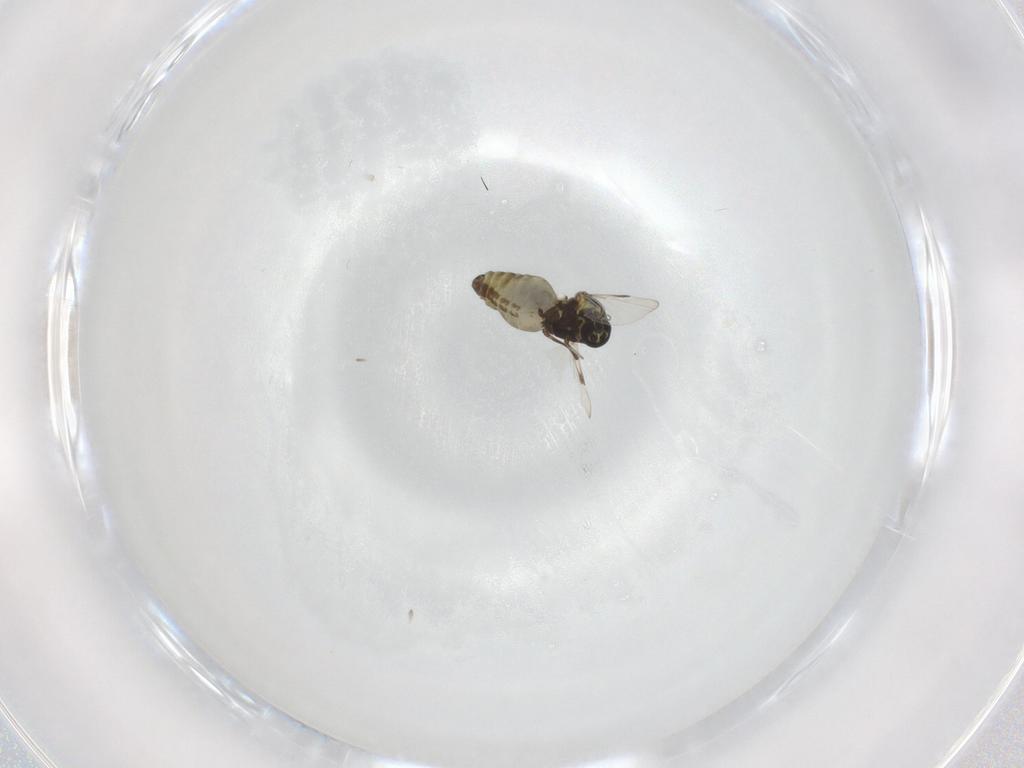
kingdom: Animalia
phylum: Arthropoda
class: Insecta
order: Diptera
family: Ceratopogonidae
